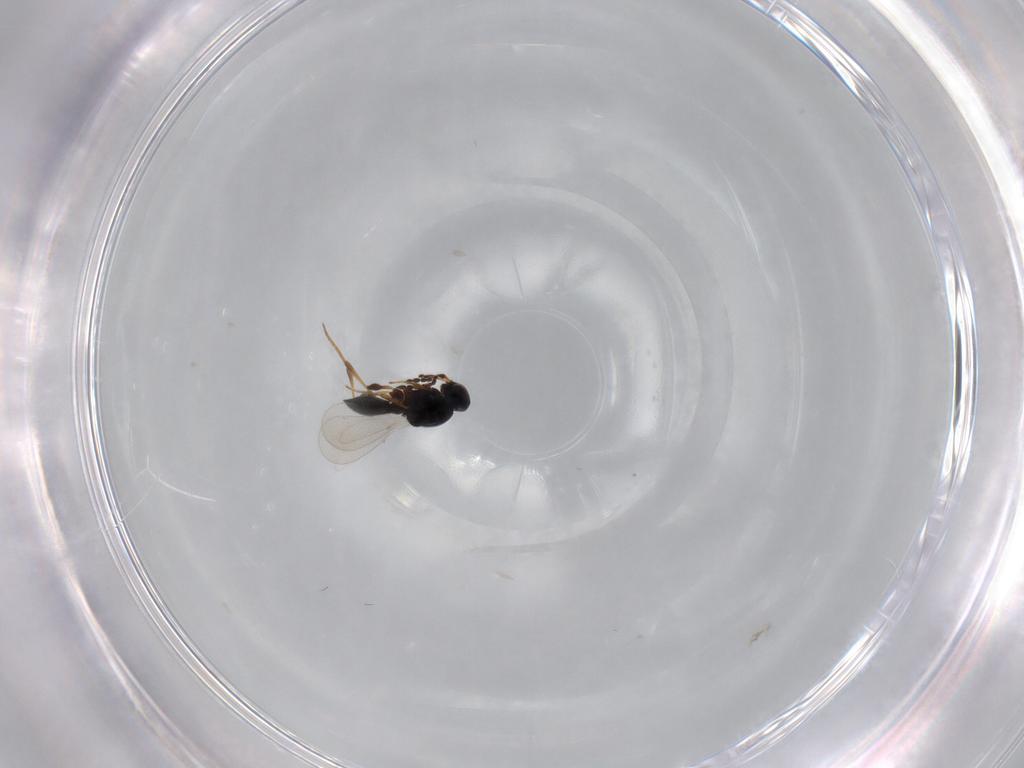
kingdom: Animalia
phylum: Arthropoda
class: Insecta
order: Hymenoptera
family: Platygastridae
